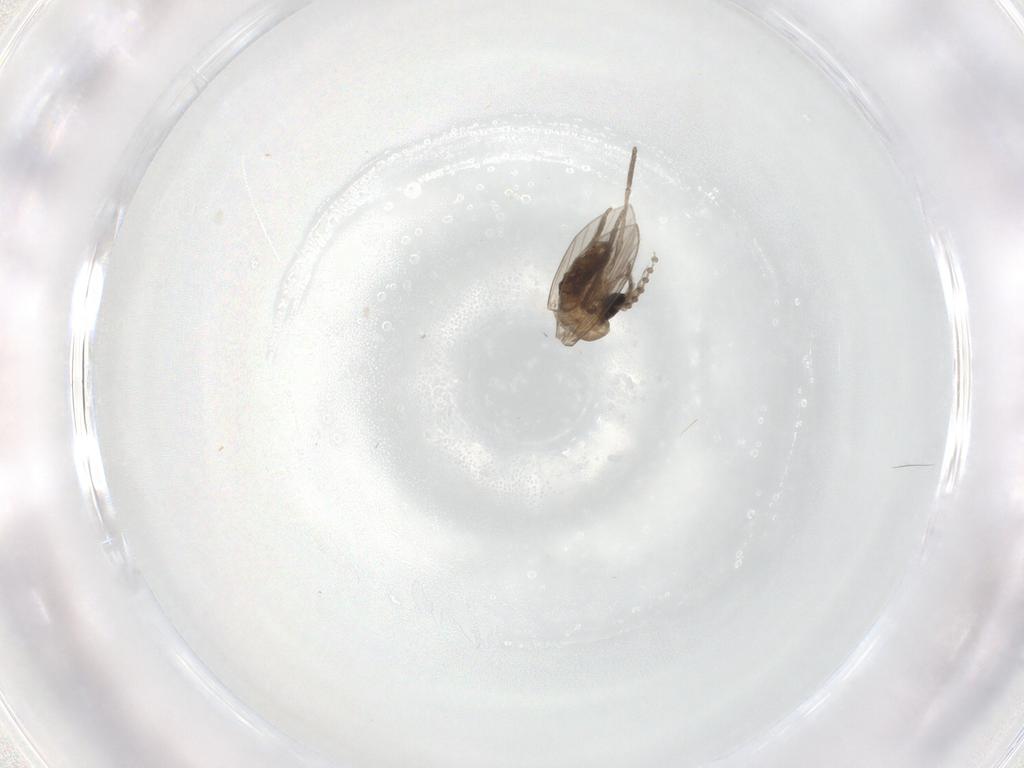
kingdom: Animalia
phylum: Arthropoda
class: Insecta
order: Diptera
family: Psychodidae
